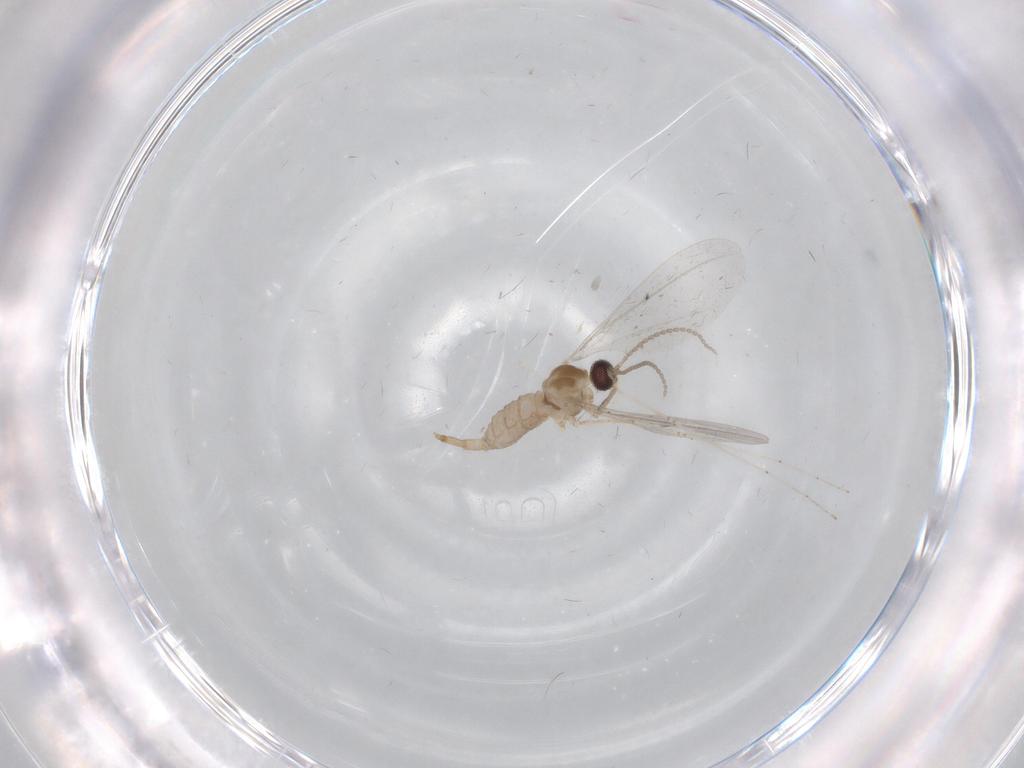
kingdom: Animalia
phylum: Arthropoda
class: Insecta
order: Diptera
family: Cecidomyiidae
